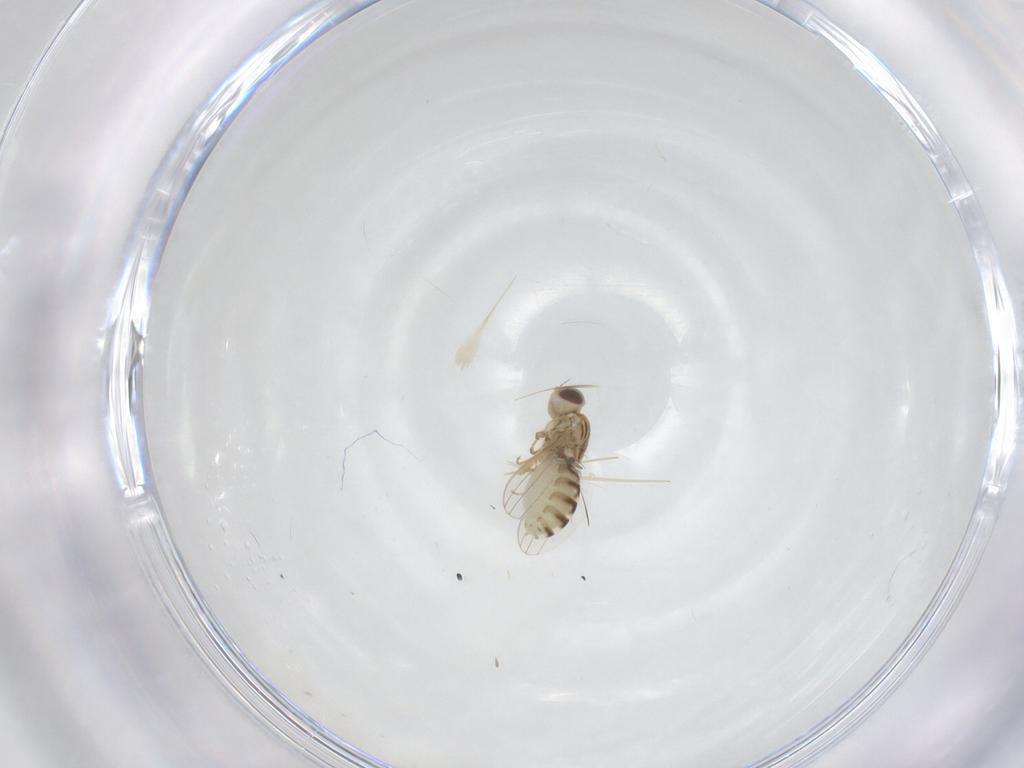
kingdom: Animalia
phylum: Arthropoda
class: Insecta
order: Diptera
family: Chyromyidae
